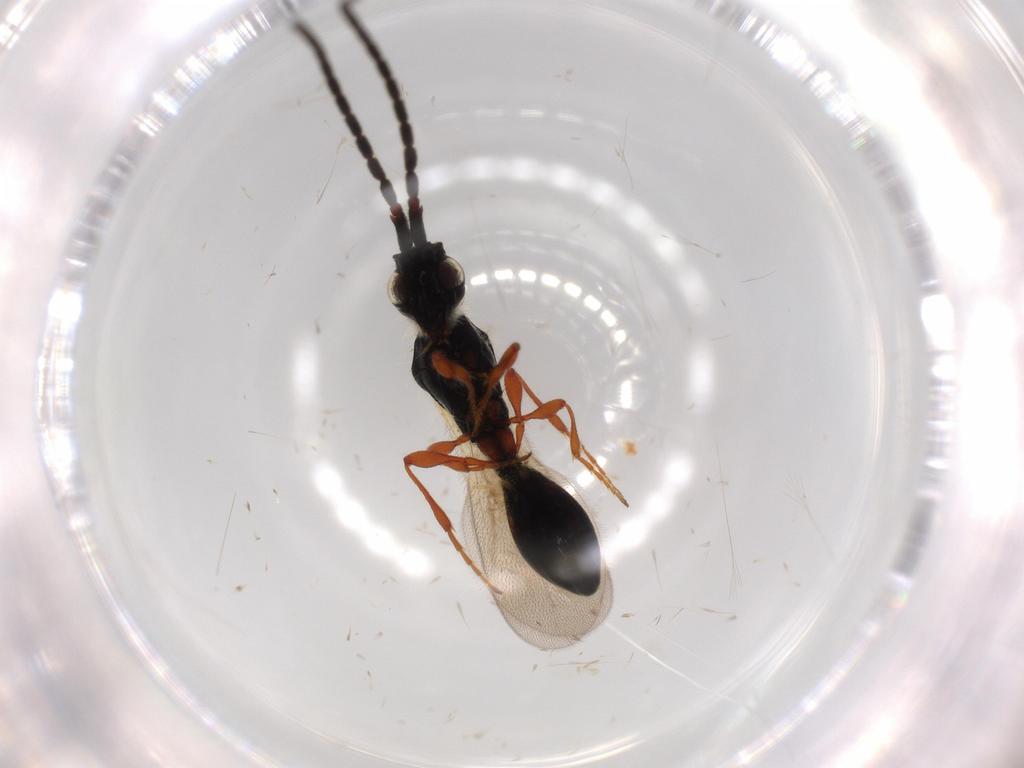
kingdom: Animalia
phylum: Arthropoda
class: Insecta
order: Hymenoptera
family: Diapriidae
